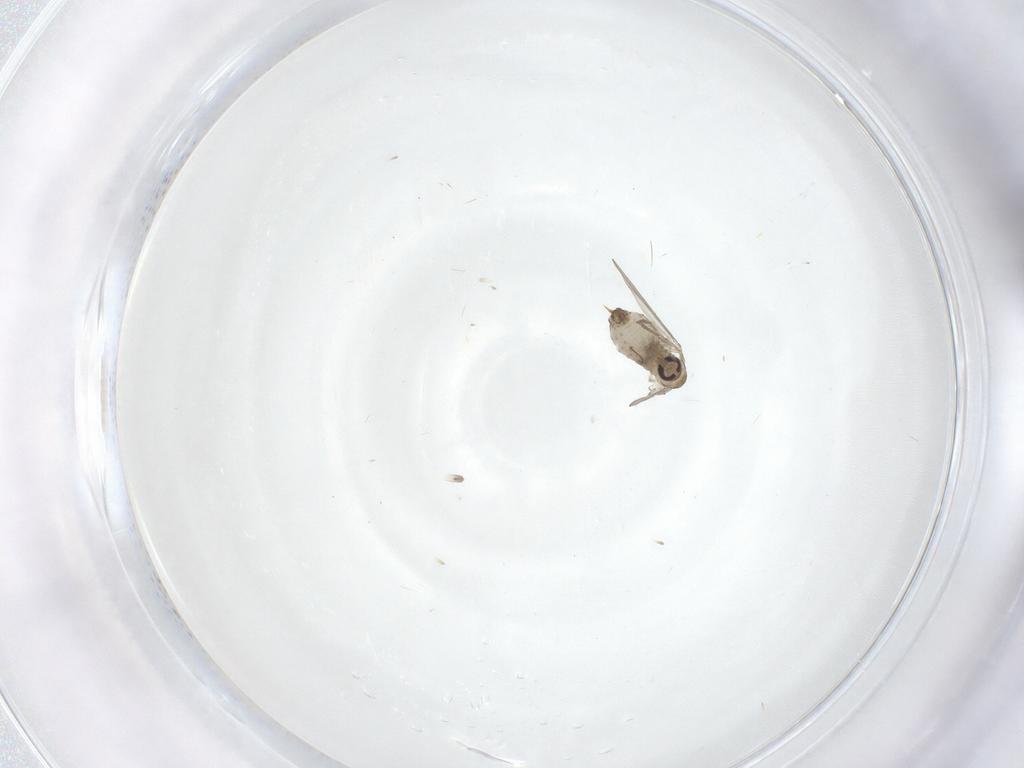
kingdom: Animalia
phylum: Arthropoda
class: Insecta
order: Diptera
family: Psychodidae
